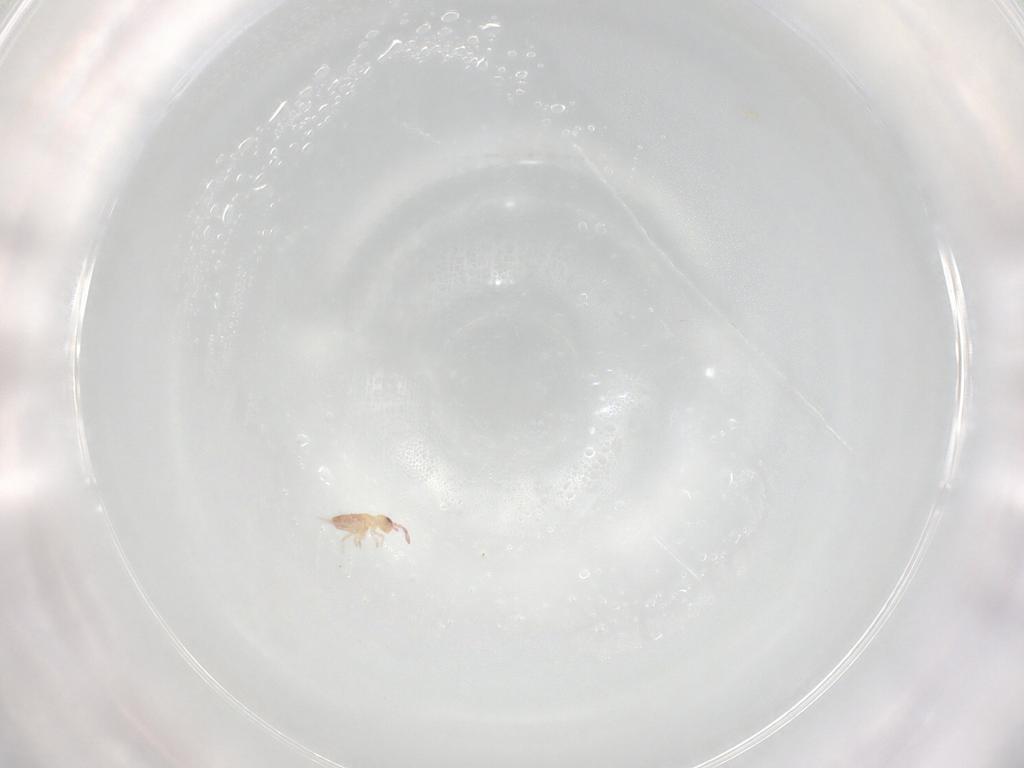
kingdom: Animalia
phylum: Arthropoda
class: Collembola
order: Entomobryomorpha
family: Entomobryidae
